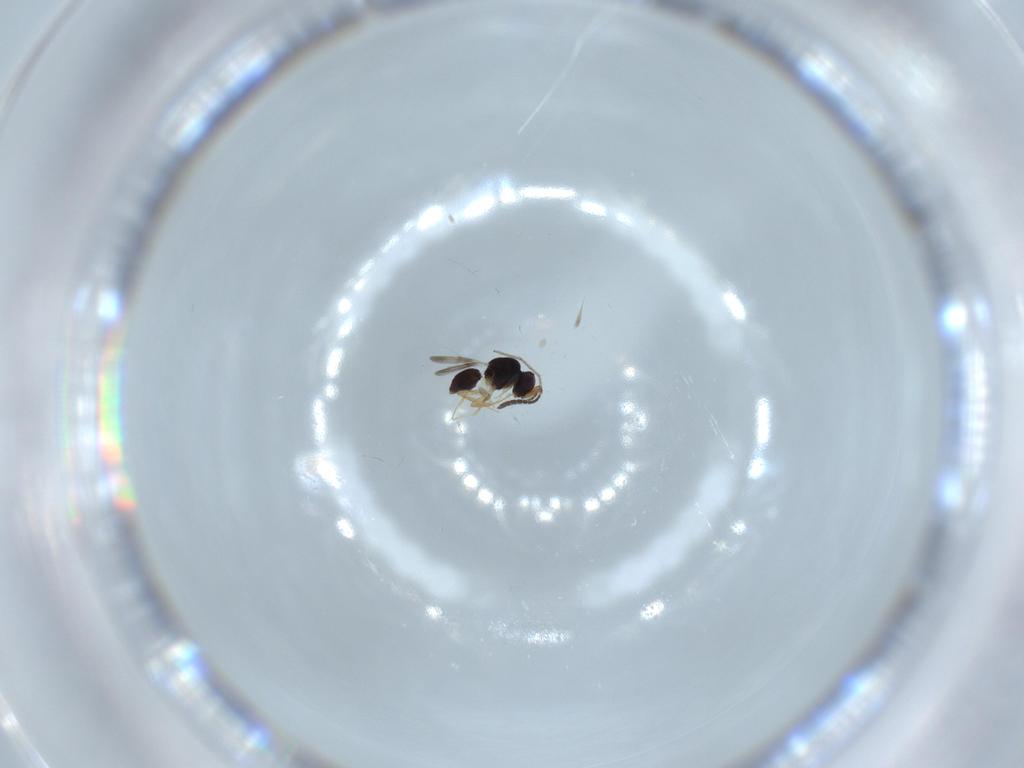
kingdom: Animalia
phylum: Arthropoda
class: Insecta
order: Hymenoptera
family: Ceraphronidae
